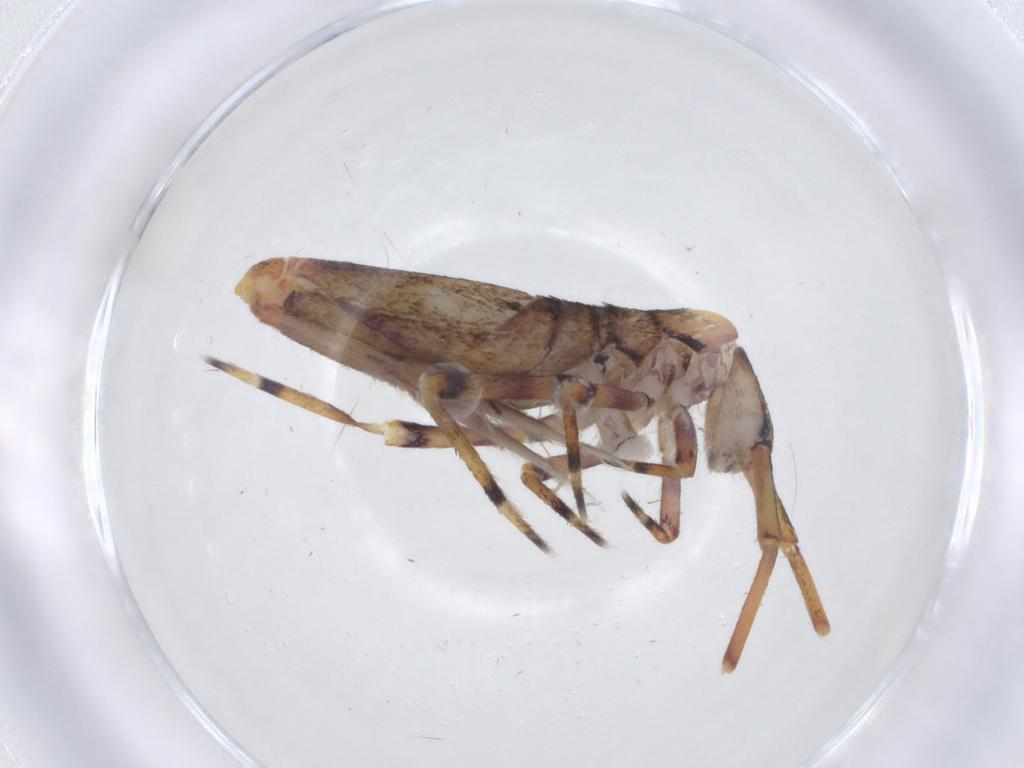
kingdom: Animalia
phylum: Arthropoda
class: Collembola
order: Entomobryomorpha
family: Entomobryidae
